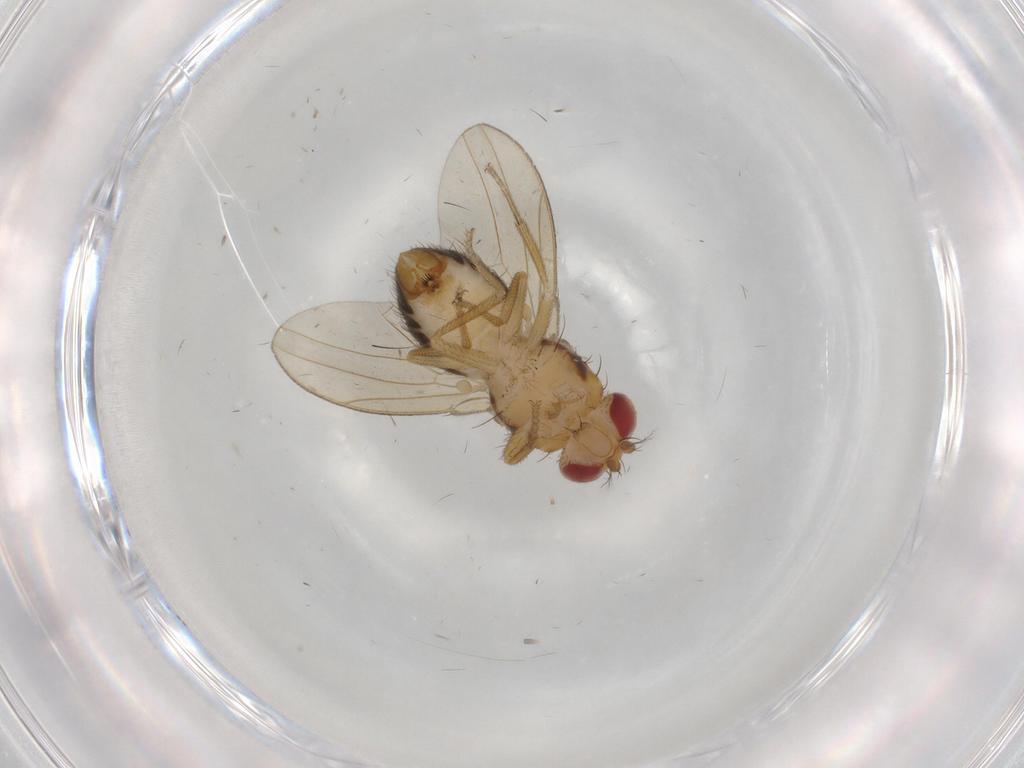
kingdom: Animalia
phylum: Arthropoda
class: Insecta
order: Diptera
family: Drosophilidae
